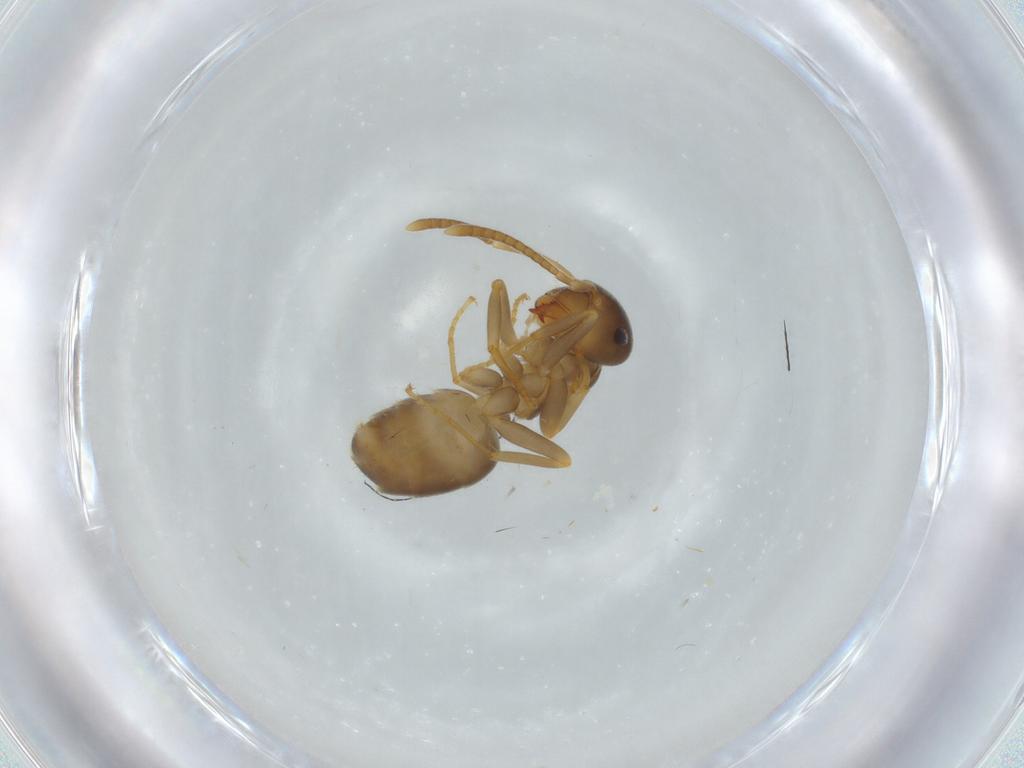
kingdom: Animalia
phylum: Arthropoda
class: Insecta
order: Hymenoptera
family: Formicidae
